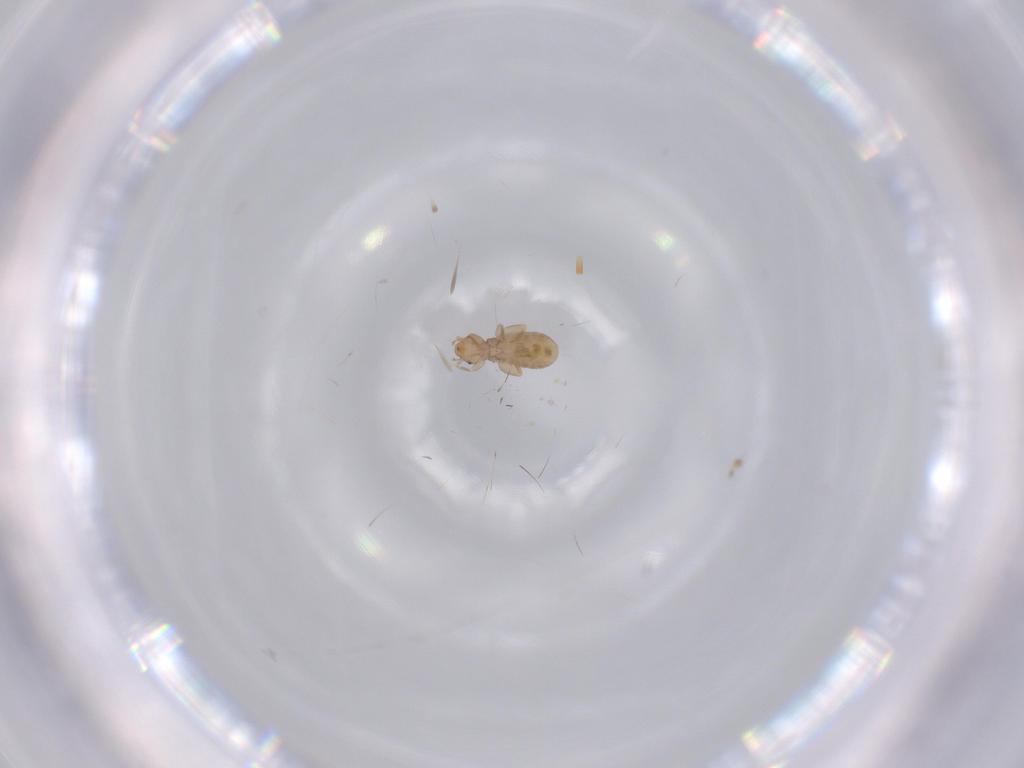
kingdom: Animalia
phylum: Arthropoda
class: Insecta
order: Psocodea
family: Liposcelididae
